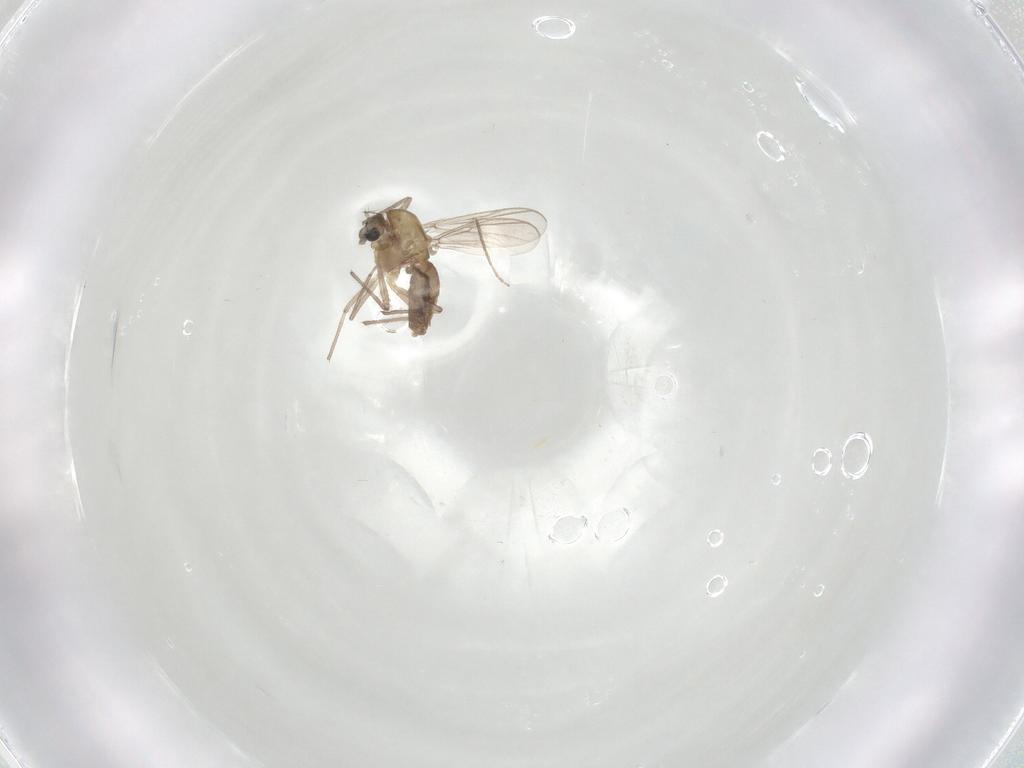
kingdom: Animalia
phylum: Arthropoda
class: Insecta
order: Diptera
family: Chironomidae
